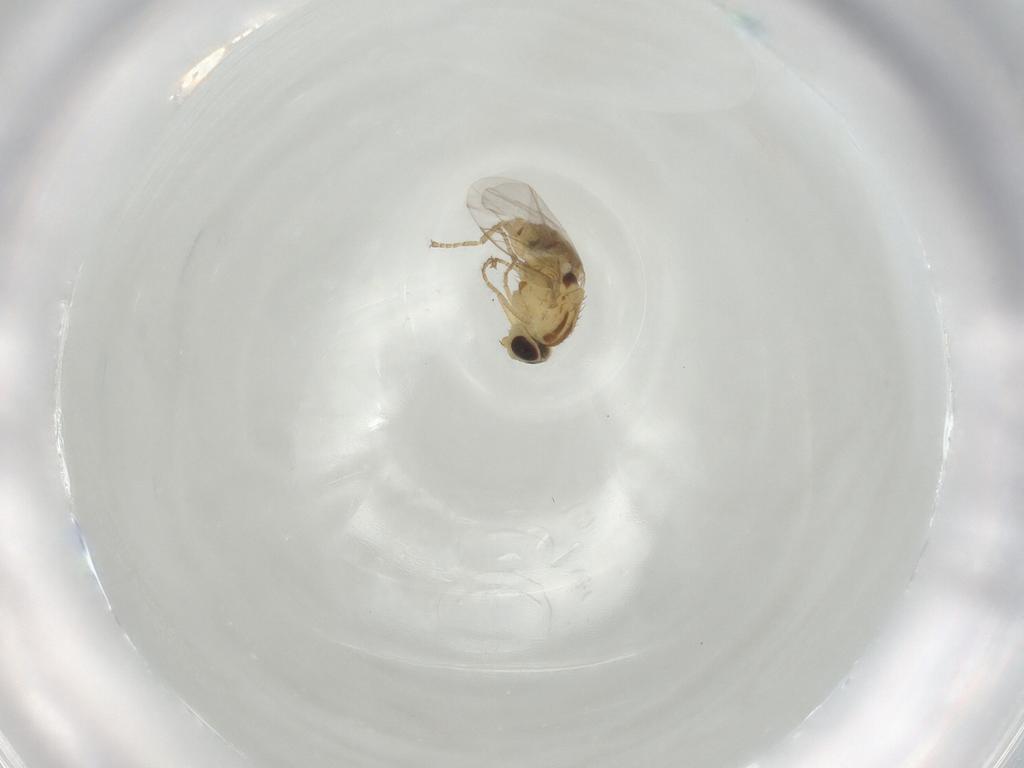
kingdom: Animalia
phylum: Arthropoda
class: Insecta
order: Diptera
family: Agromyzidae
